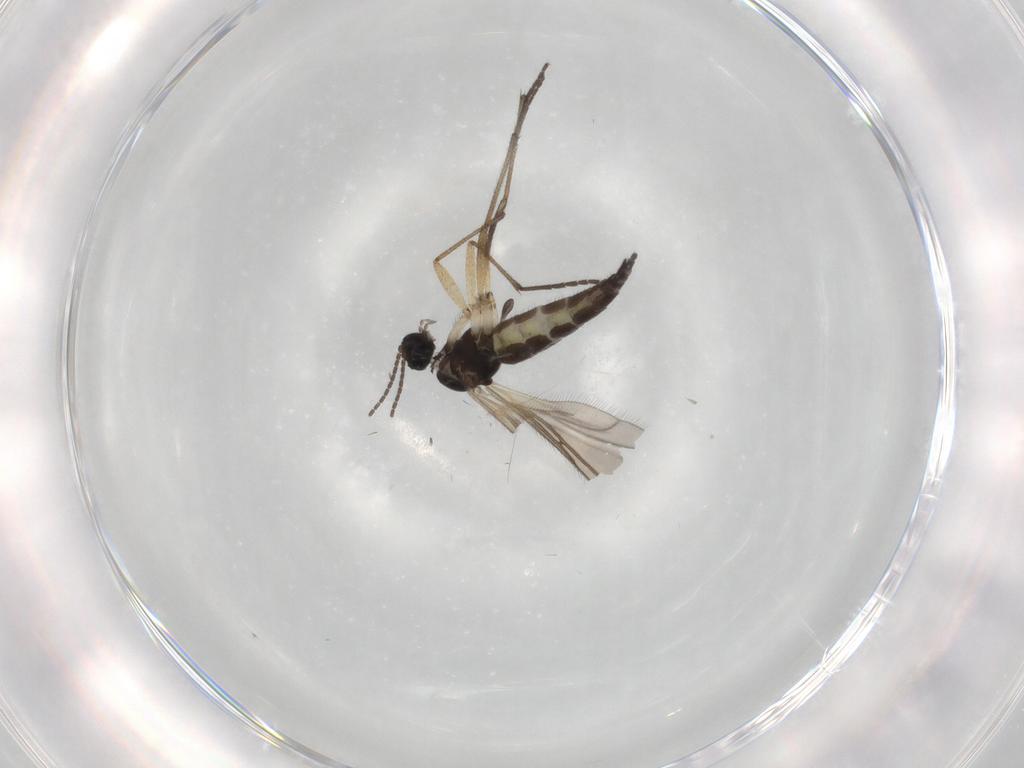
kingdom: Animalia
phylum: Arthropoda
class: Insecta
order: Diptera
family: Sciaridae
